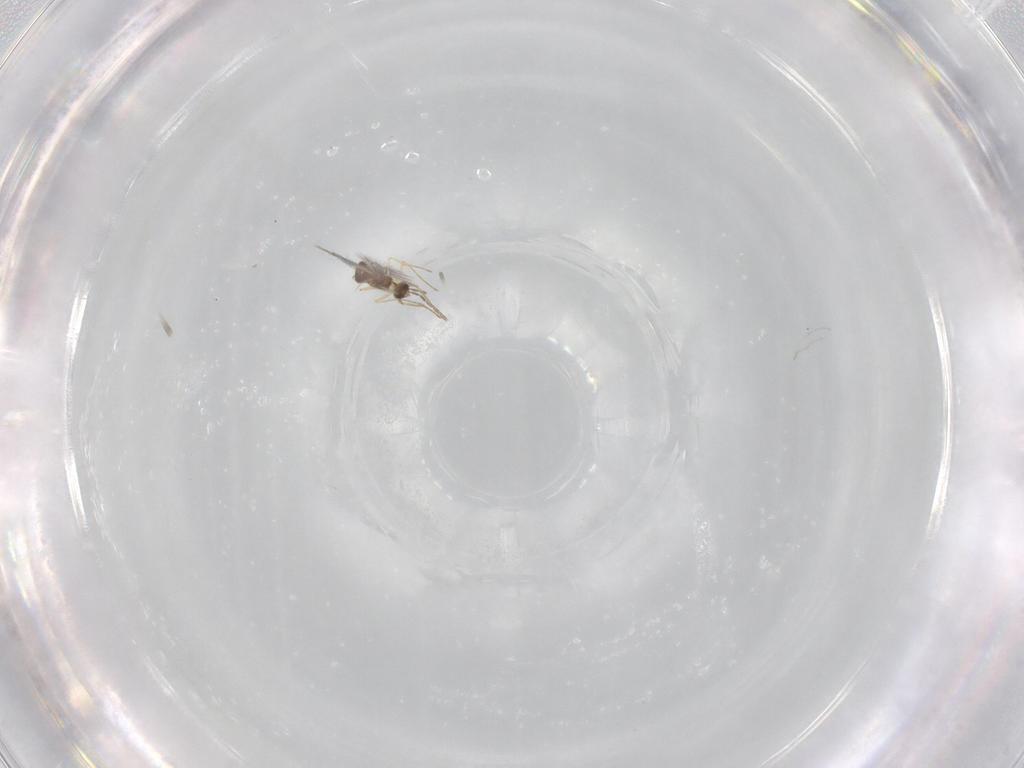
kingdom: Animalia
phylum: Arthropoda
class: Insecta
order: Hymenoptera
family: Mymaridae
